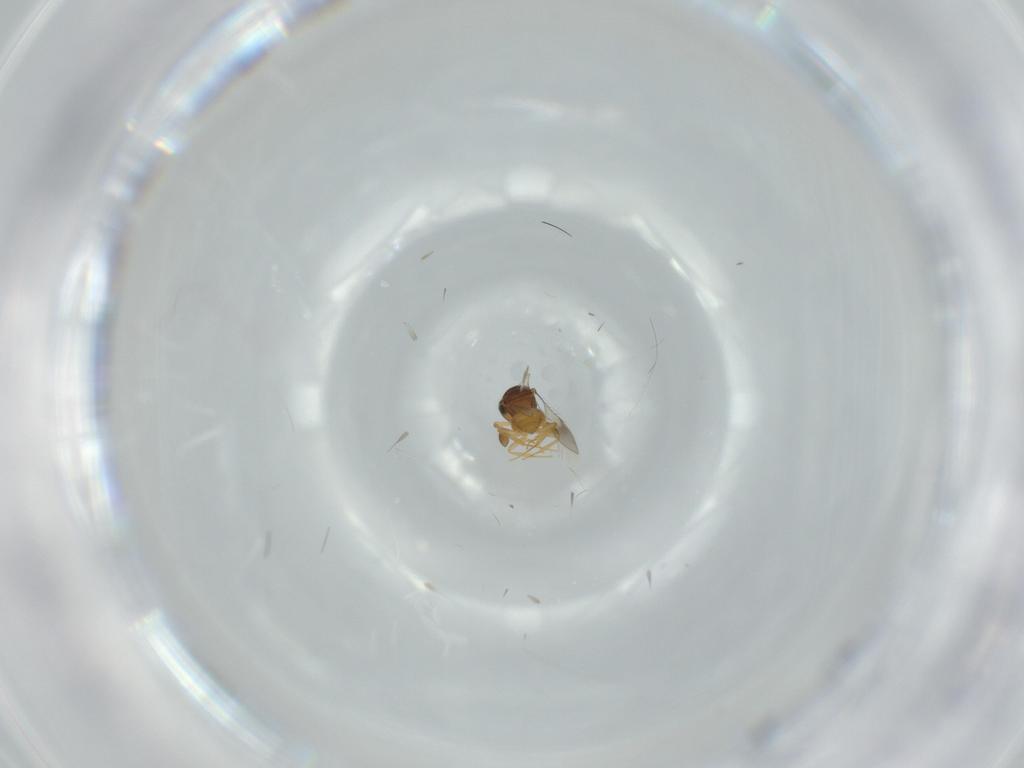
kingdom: Animalia
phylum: Arthropoda
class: Insecta
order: Hymenoptera
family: Scelionidae
